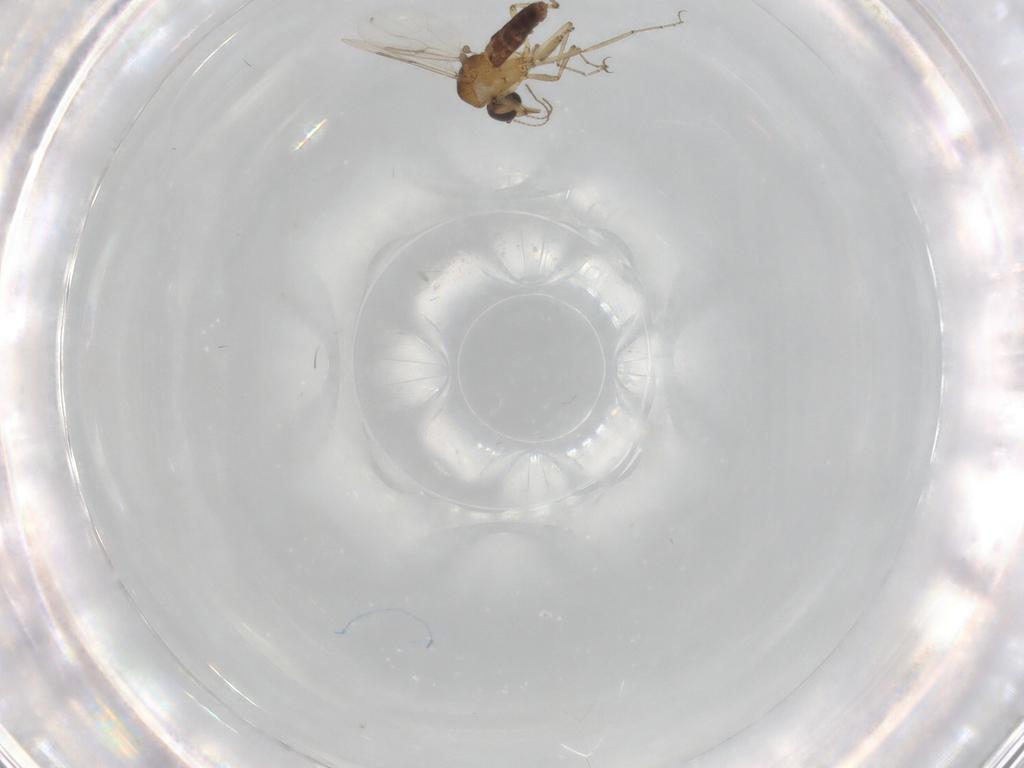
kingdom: Animalia
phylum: Arthropoda
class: Insecta
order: Diptera
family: Ceratopogonidae
